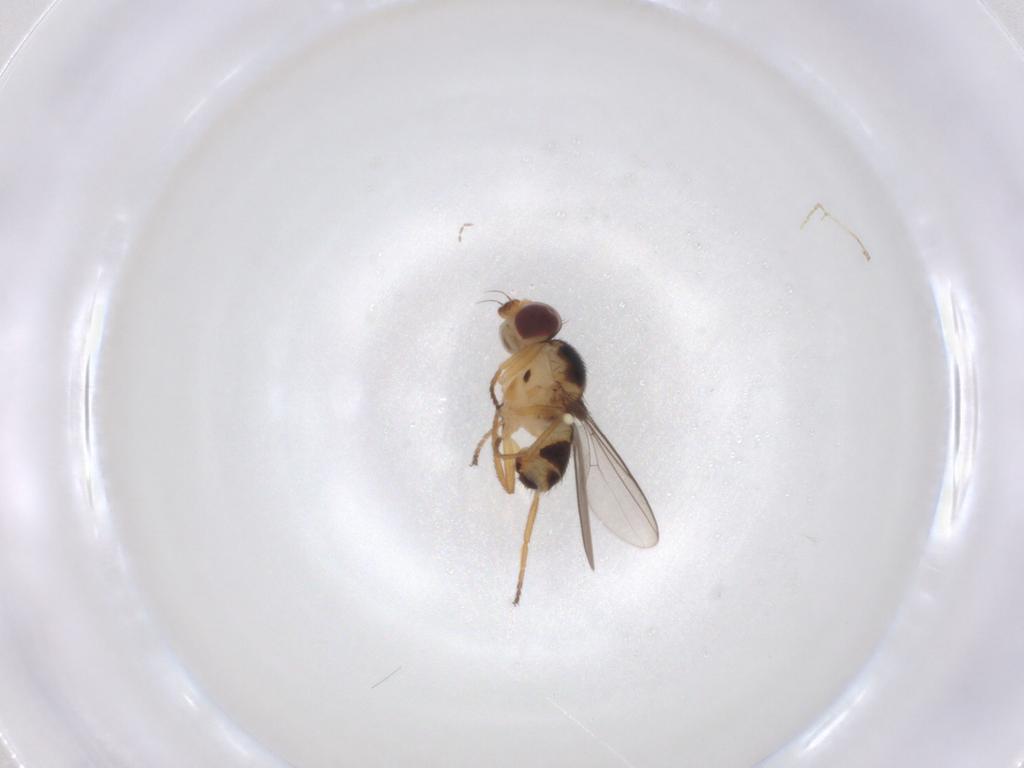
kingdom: Animalia
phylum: Arthropoda
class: Insecta
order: Diptera
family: Chloropidae
